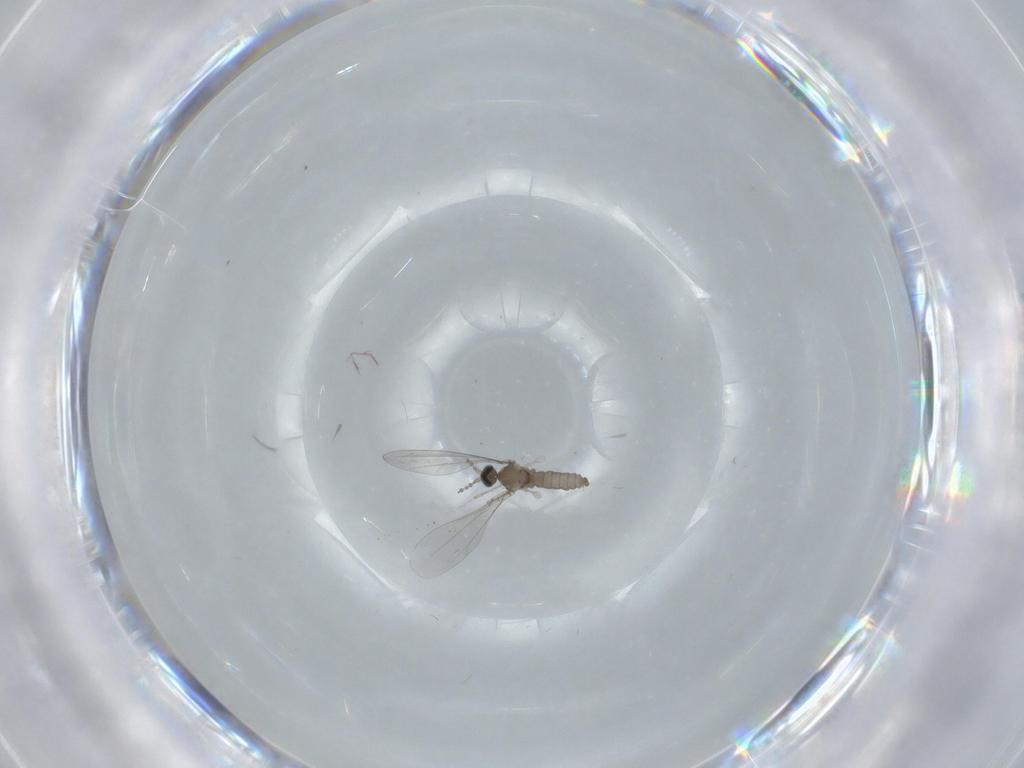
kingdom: Animalia
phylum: Arthropoda
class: Insecta
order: Diptera
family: Cecidomyiidae
